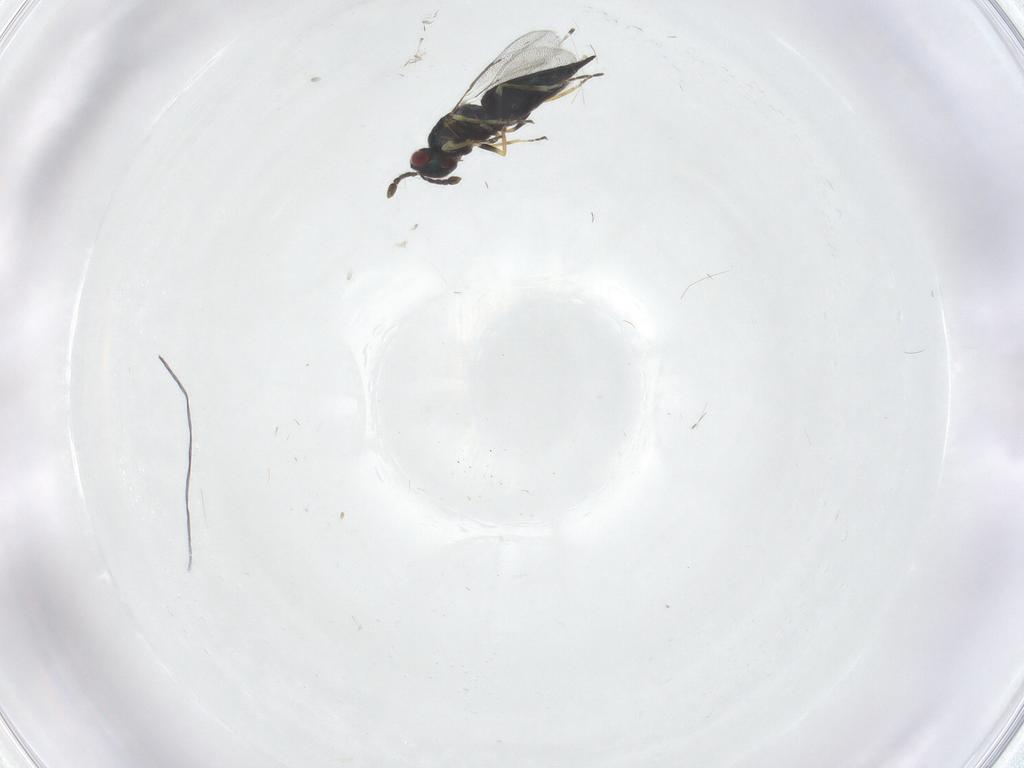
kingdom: Animalia
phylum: Arthropoda
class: Insecta
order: Hymenoptera
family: Eulophidae
